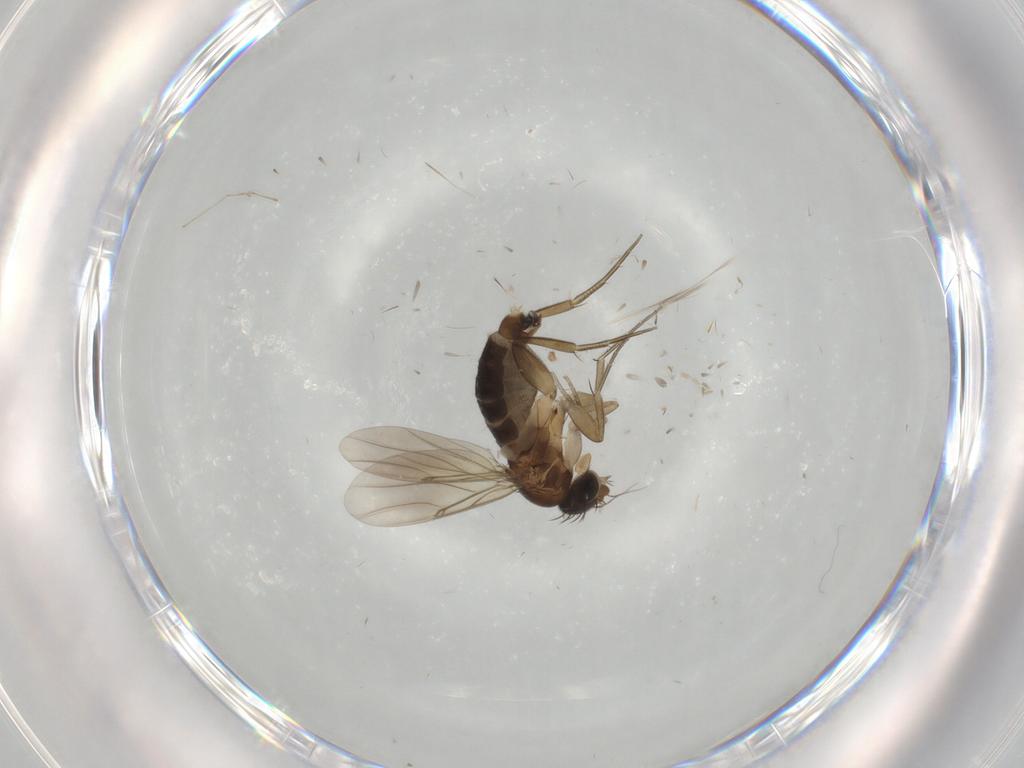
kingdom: Animalia
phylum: Arthropoda
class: Insecta
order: Diptera
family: Phoridae
